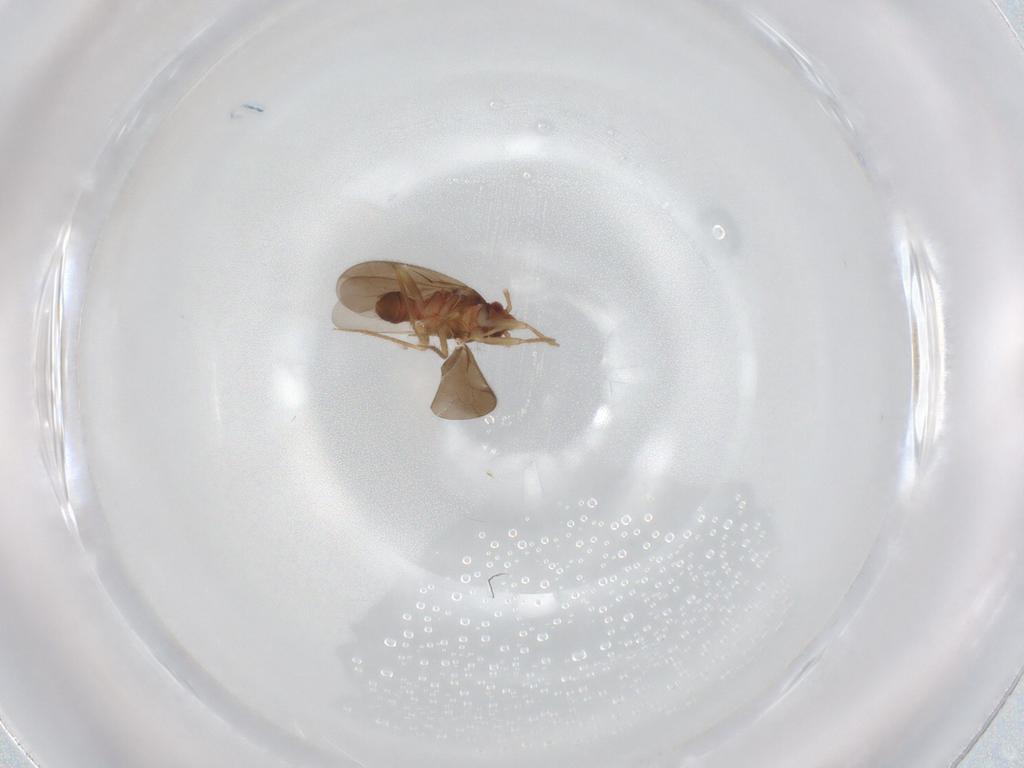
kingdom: Animalia
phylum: Arthropoda
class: Insecta
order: Hemiptera
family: Ceratocombidae
